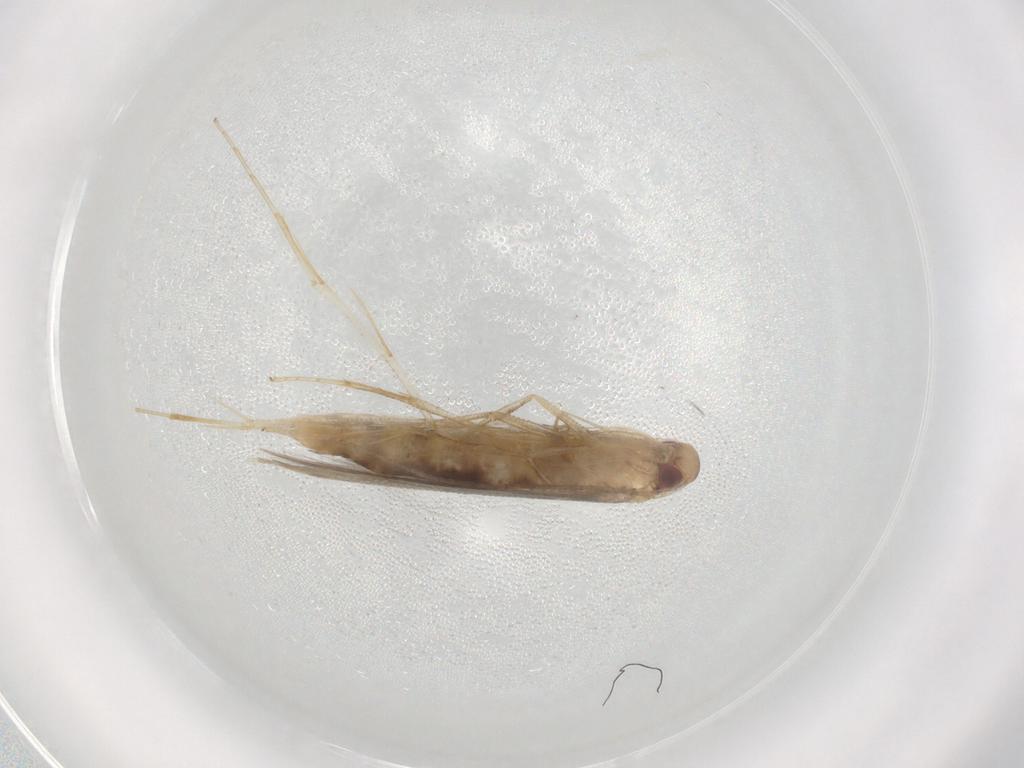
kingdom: Animalia
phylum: Arthropoda
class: Insecta
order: Lepidoptera
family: Cosmopterigidae
